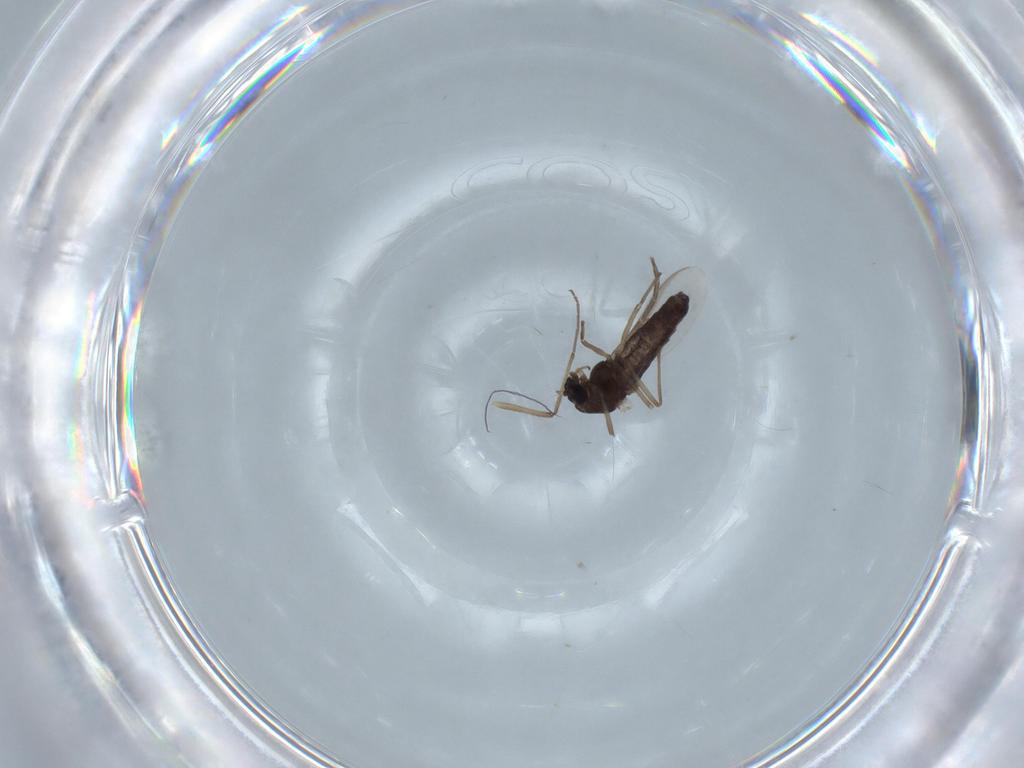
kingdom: Animalia
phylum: Arthropoda
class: Insecta
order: Diptera
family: Chironomidae
